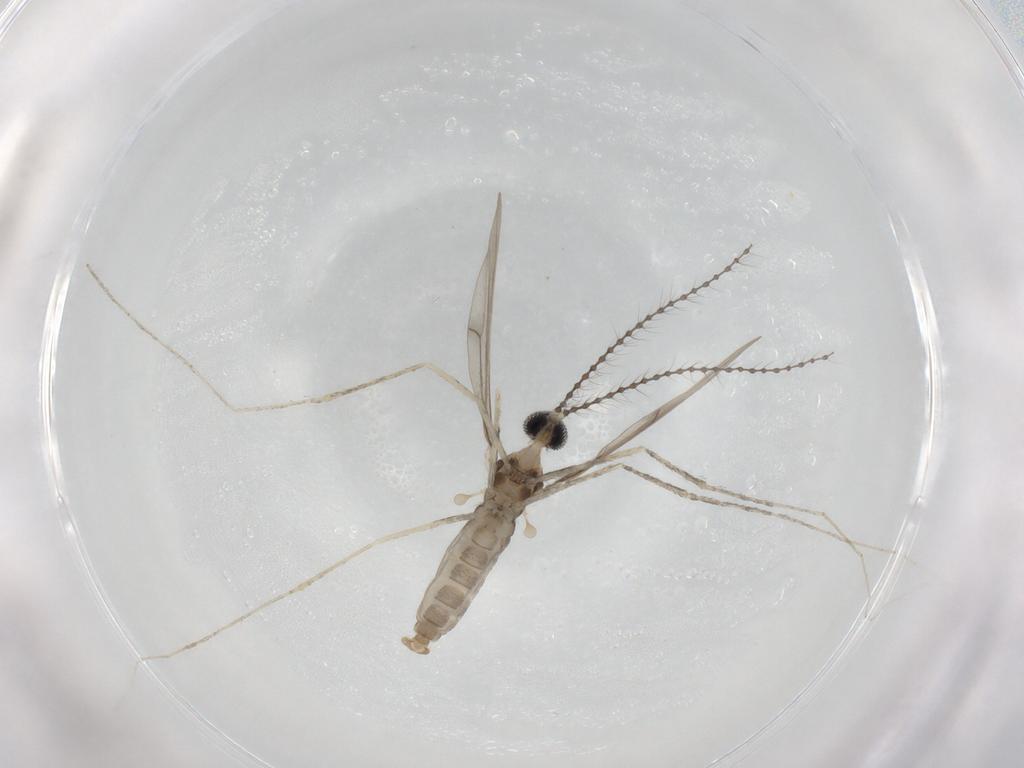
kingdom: Animalia
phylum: Arthropoda
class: Insecta
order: Diptera
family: Cecidomyiidae
